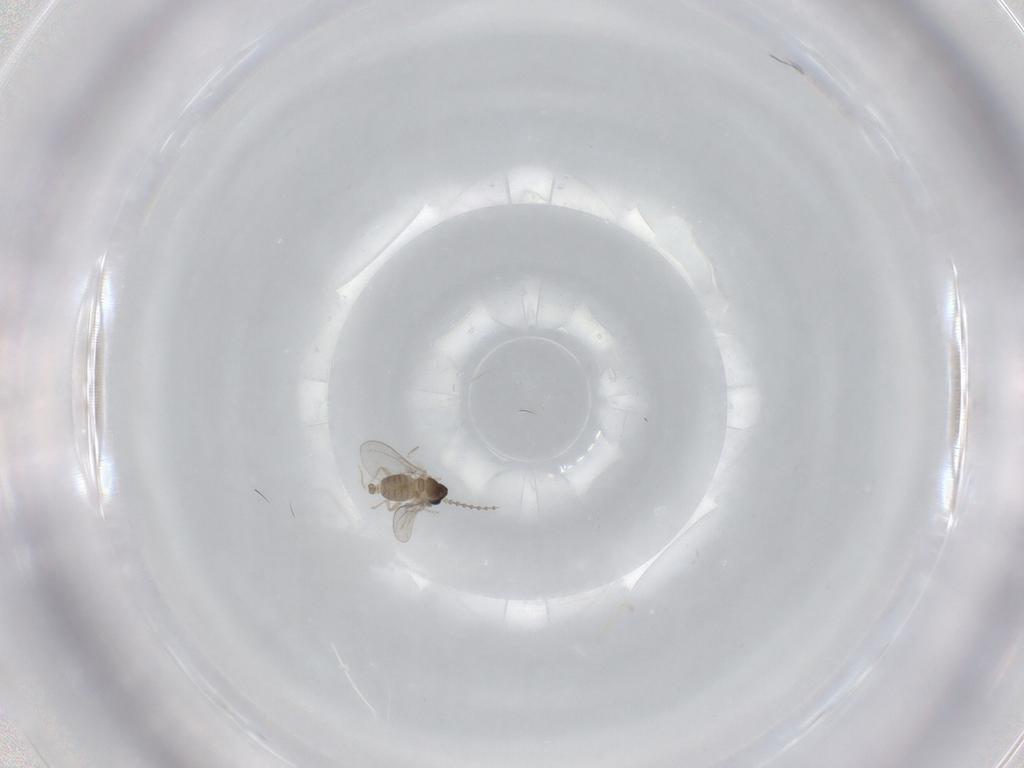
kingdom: Animalia
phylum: Arthropoda
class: Insecta
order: Diptera
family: Cecidomyiidae
